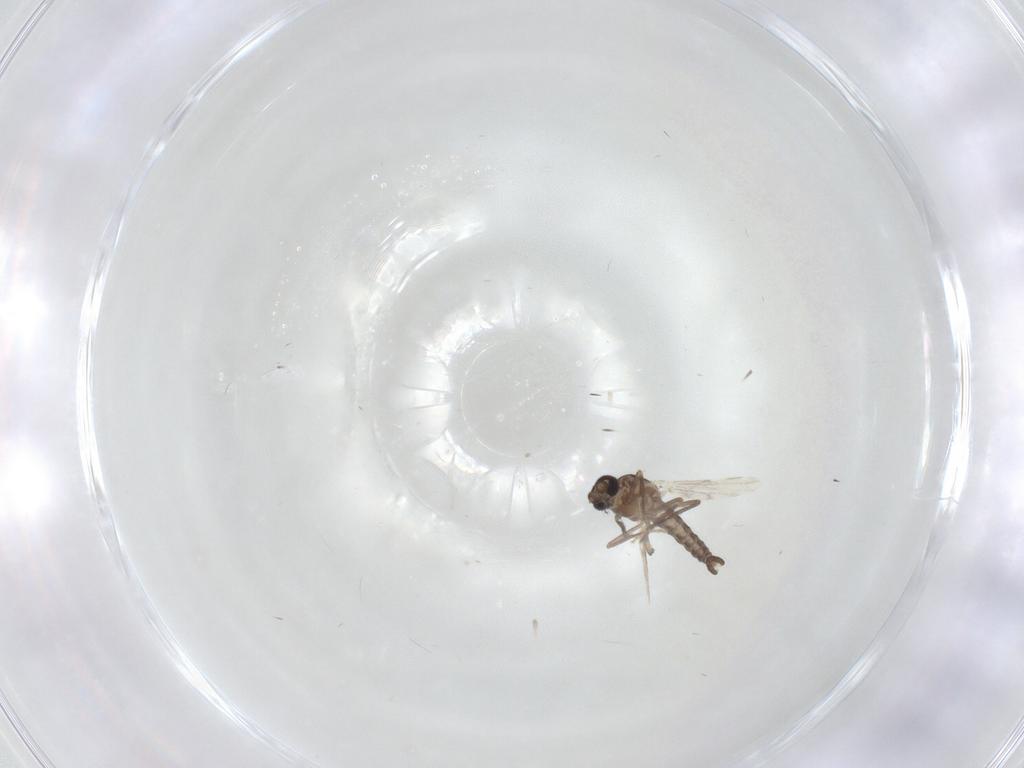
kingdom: Animalia
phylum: Arthropoda
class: Insecta
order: Diptera
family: Ceratopogonidae
